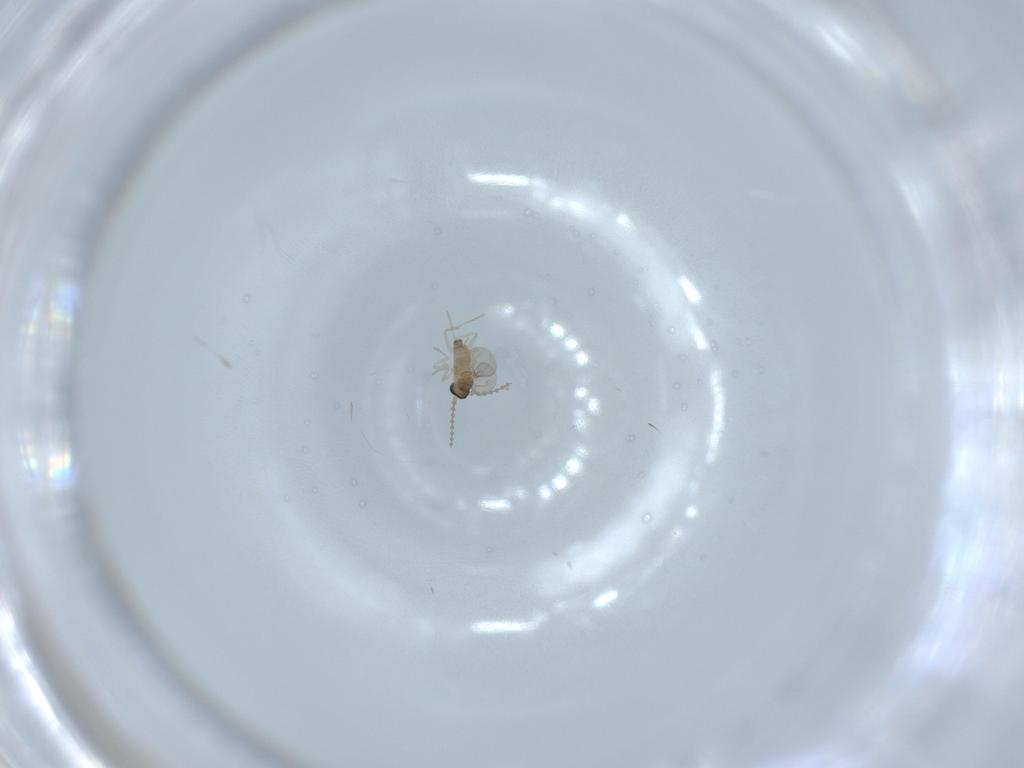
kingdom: Animalia
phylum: Arthropoda
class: Insecta
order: Diptera
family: Cecidomyiidae
